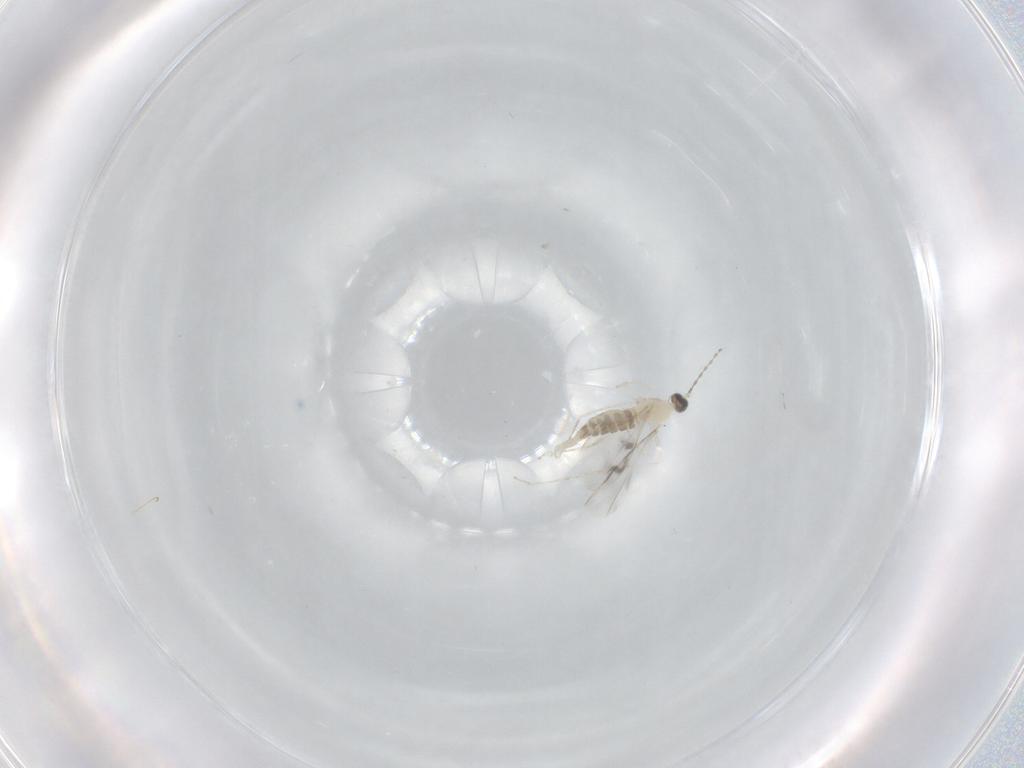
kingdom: Animalia
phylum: Arthropoda
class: Insecta
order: Diptera
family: Cecidomyiidae
